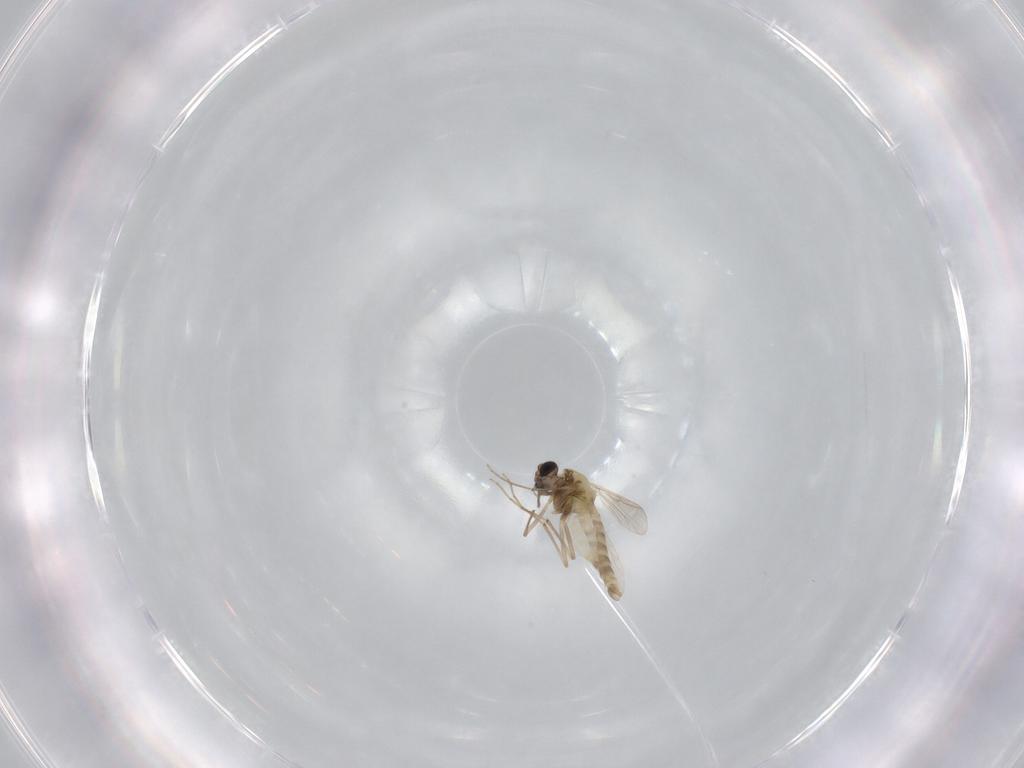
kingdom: Animalia
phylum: Arthropoda
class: Insecta
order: Diptera
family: Chironomidae
